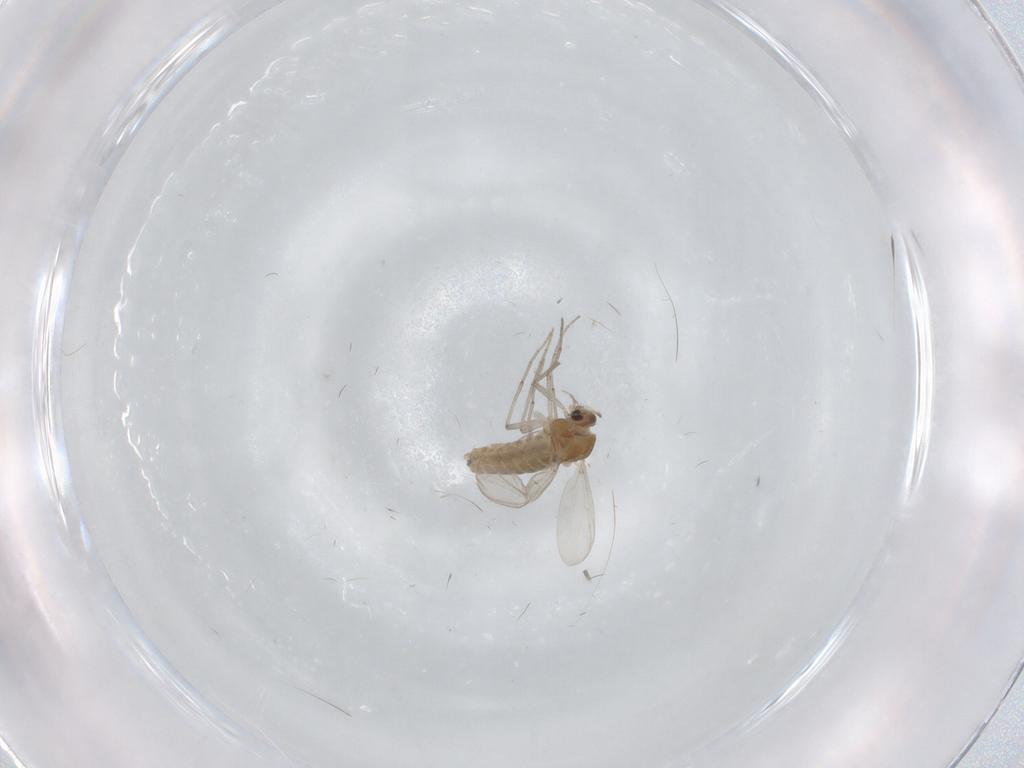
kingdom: Animalia
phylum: Arthropoda
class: Insecta
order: Diptera
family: Chironomidae
